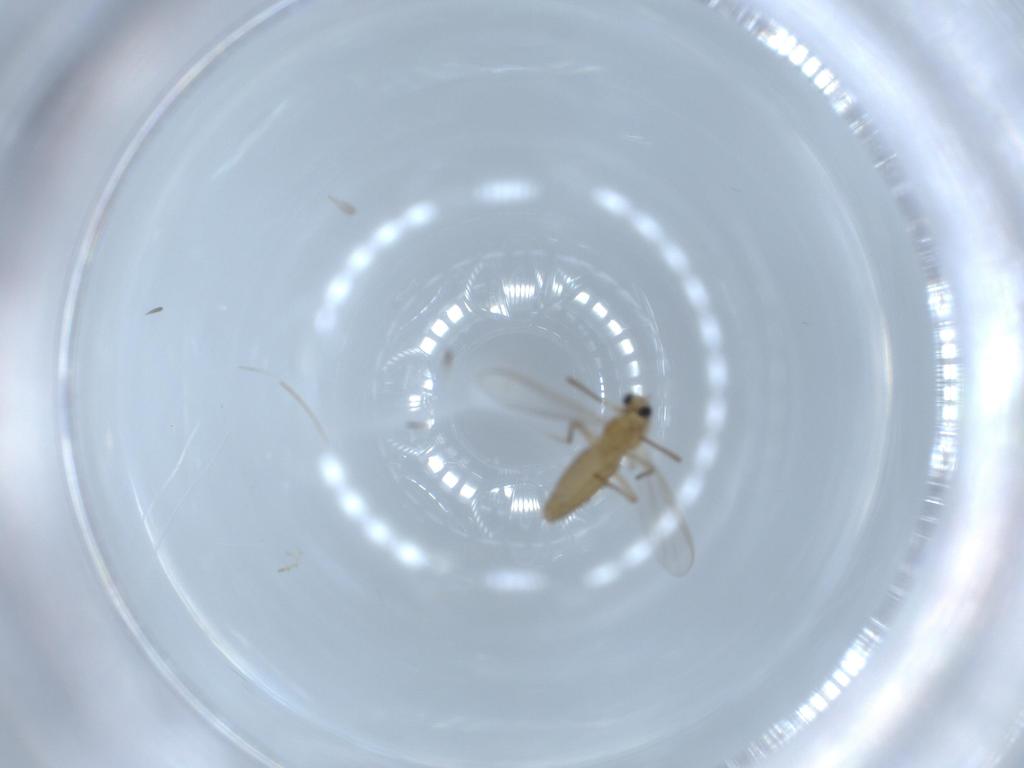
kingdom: Animalia
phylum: Arthropoda
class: Insecta
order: Diptera
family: Chironomidae
